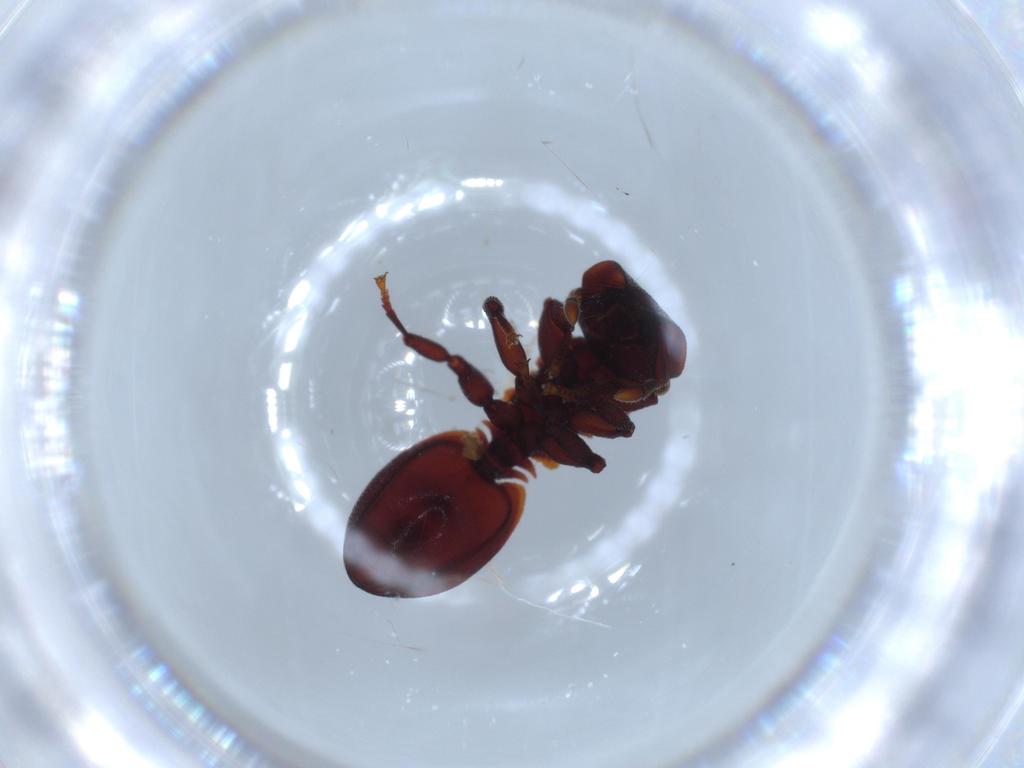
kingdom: Animalia
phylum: Arthropoda
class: Insecta
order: Hymenoptera
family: Formicidae
